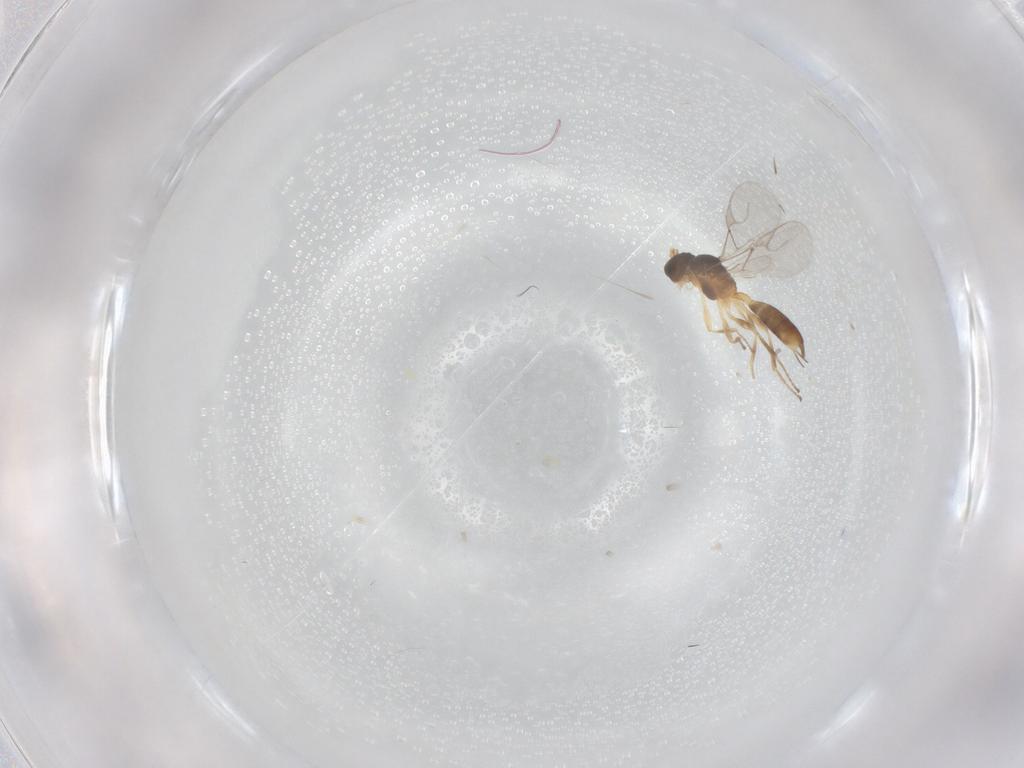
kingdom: Animalia
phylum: Arthropoda
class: Insecta
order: Hymenoptera
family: Braconidae
